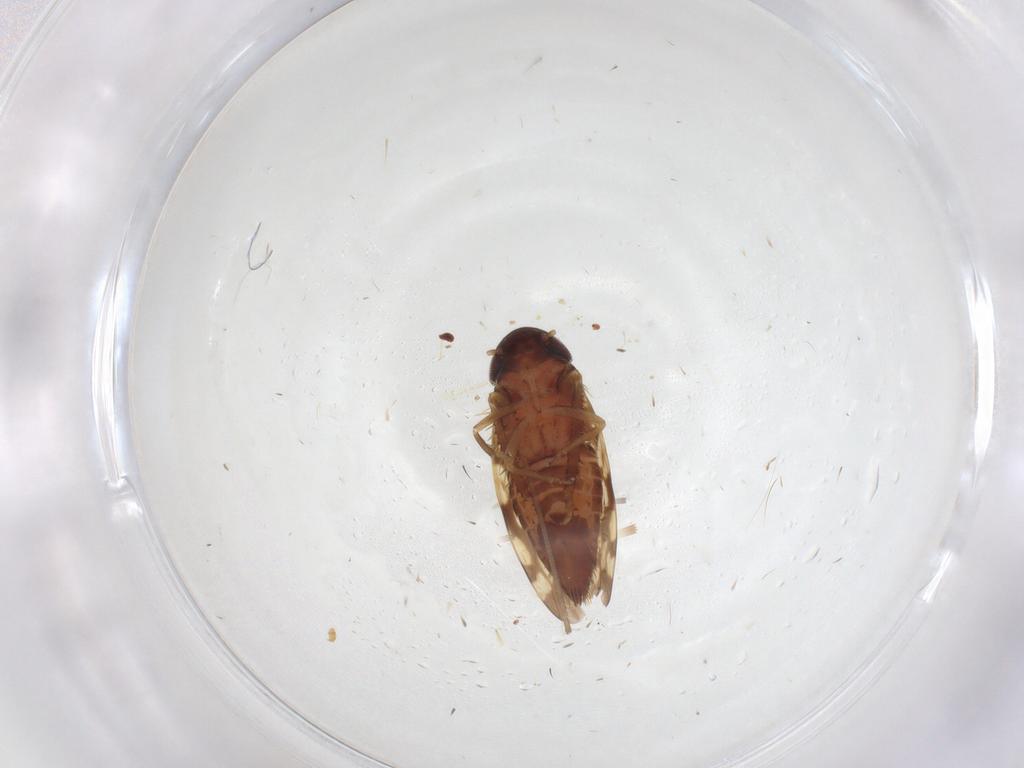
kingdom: Animalia
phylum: Arthropoda
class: Insecta
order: Hemiptera
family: Cicadellidae
